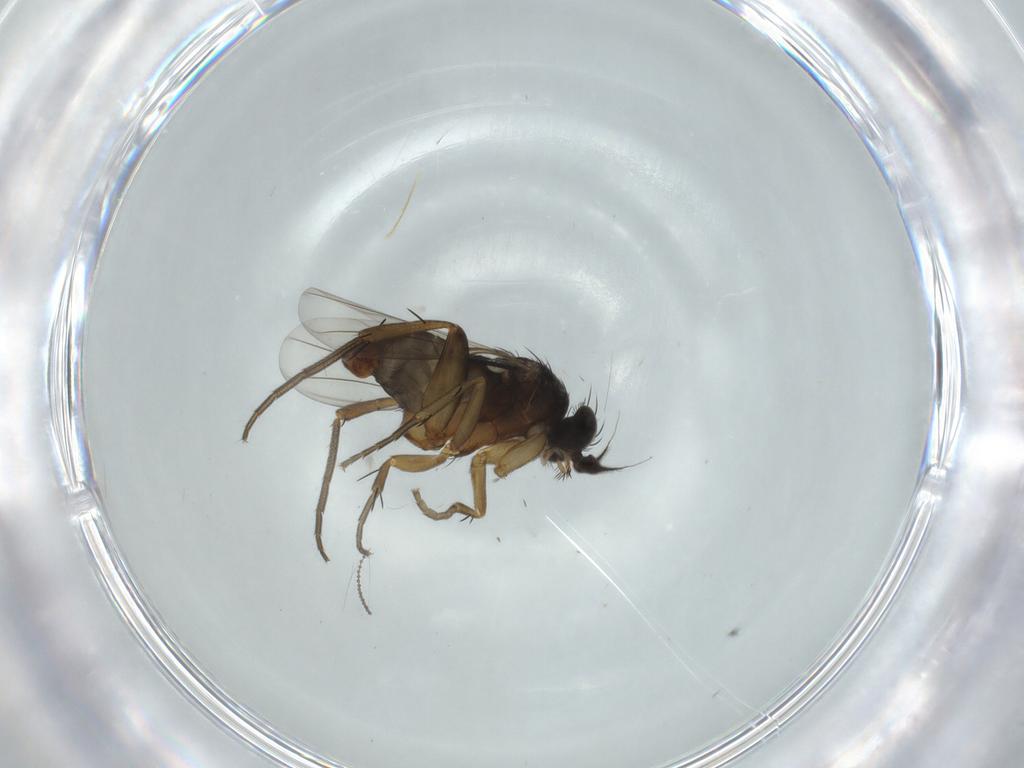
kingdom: Animalia
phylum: Arthropoda
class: Insecta
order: Diptera
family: Phoridae
